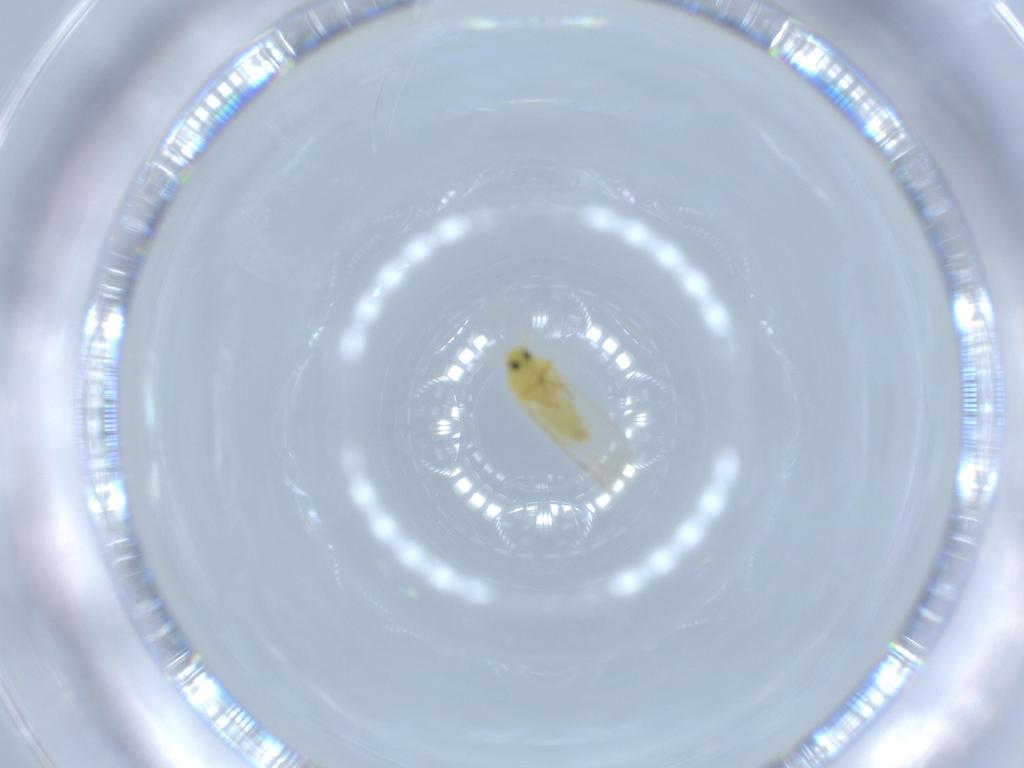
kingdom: Animalia
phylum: Arthropoda
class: Insecta
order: Hemiptera
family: Aleyrodidae
